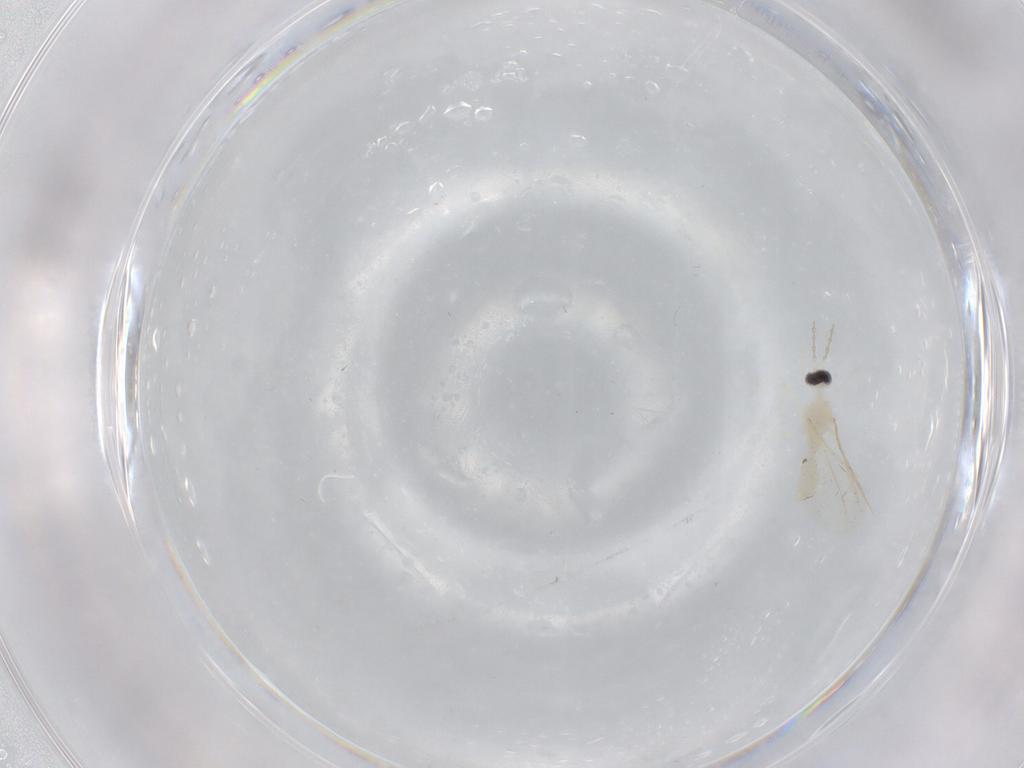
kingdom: Animalia
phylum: Arthropoda
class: Insecta
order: Diptera
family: Cecidomyiidae
